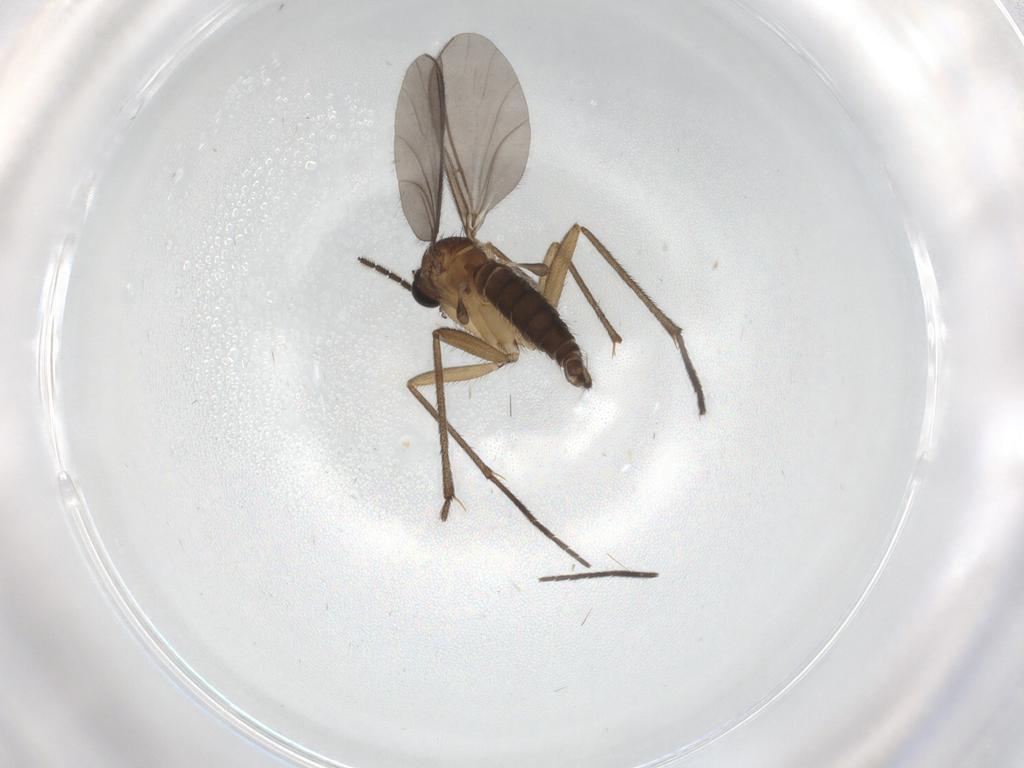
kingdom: Animalia
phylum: Arthropoda
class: Insecta
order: Diptera
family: Sciaridae
